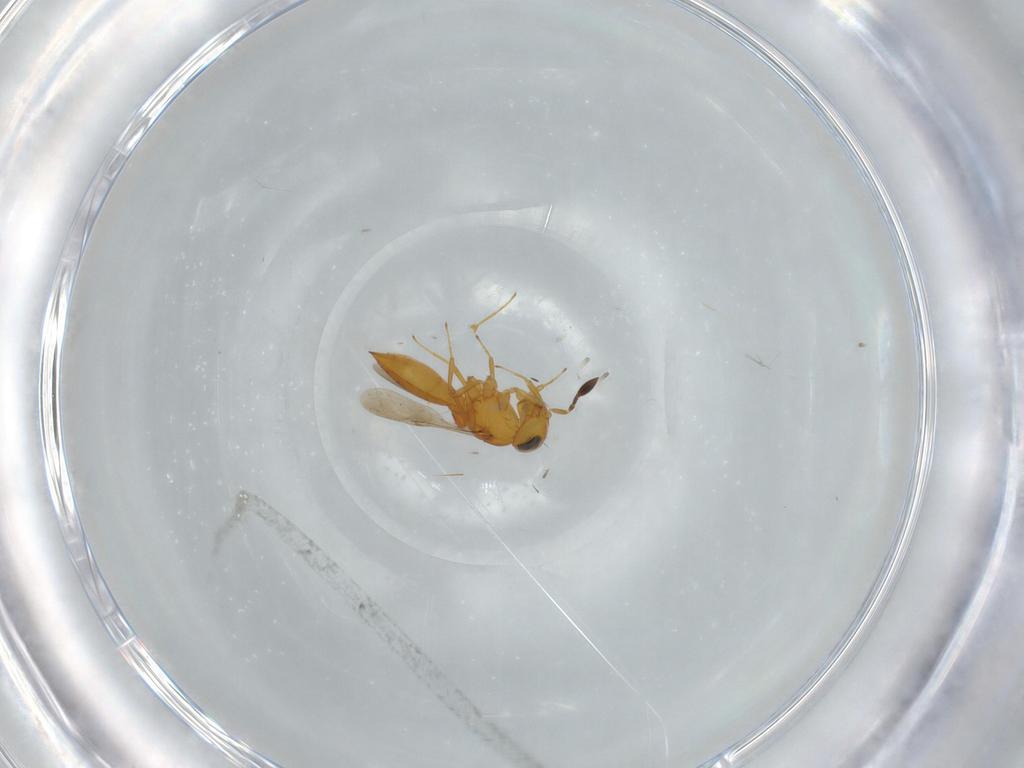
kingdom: Animalia
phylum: Arthropoda
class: Insecta
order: Hymenoptera
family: Scelionidae
